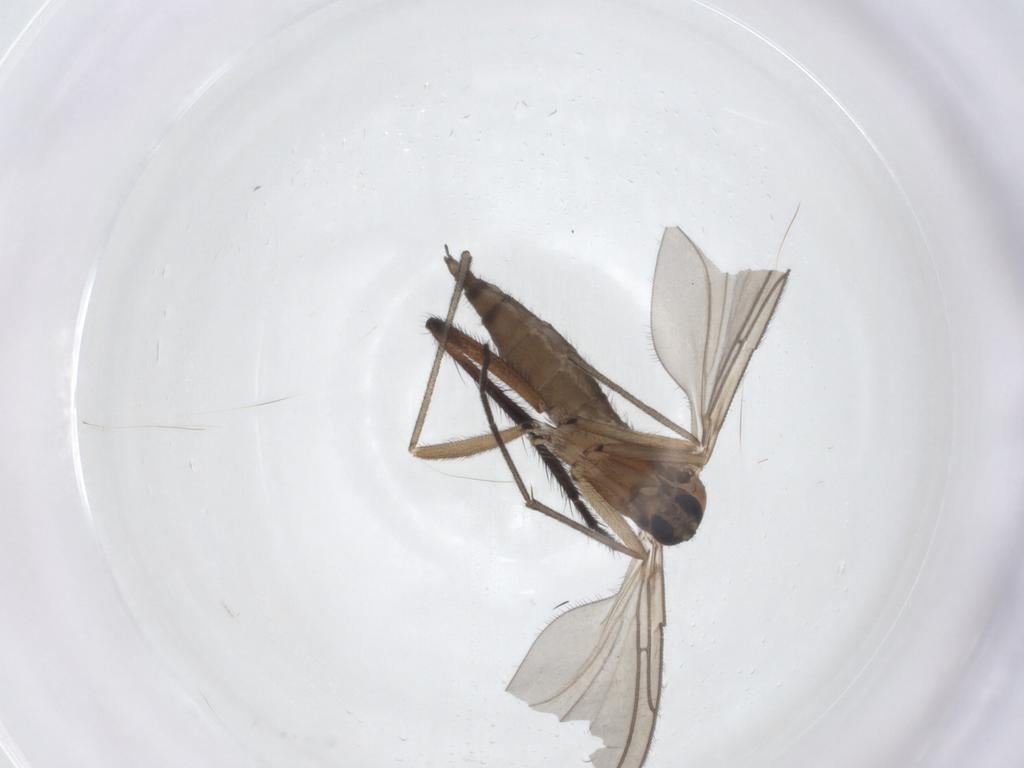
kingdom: Animalia
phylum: Arthropoda
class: Insecta
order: Diptera
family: Sciaridae
